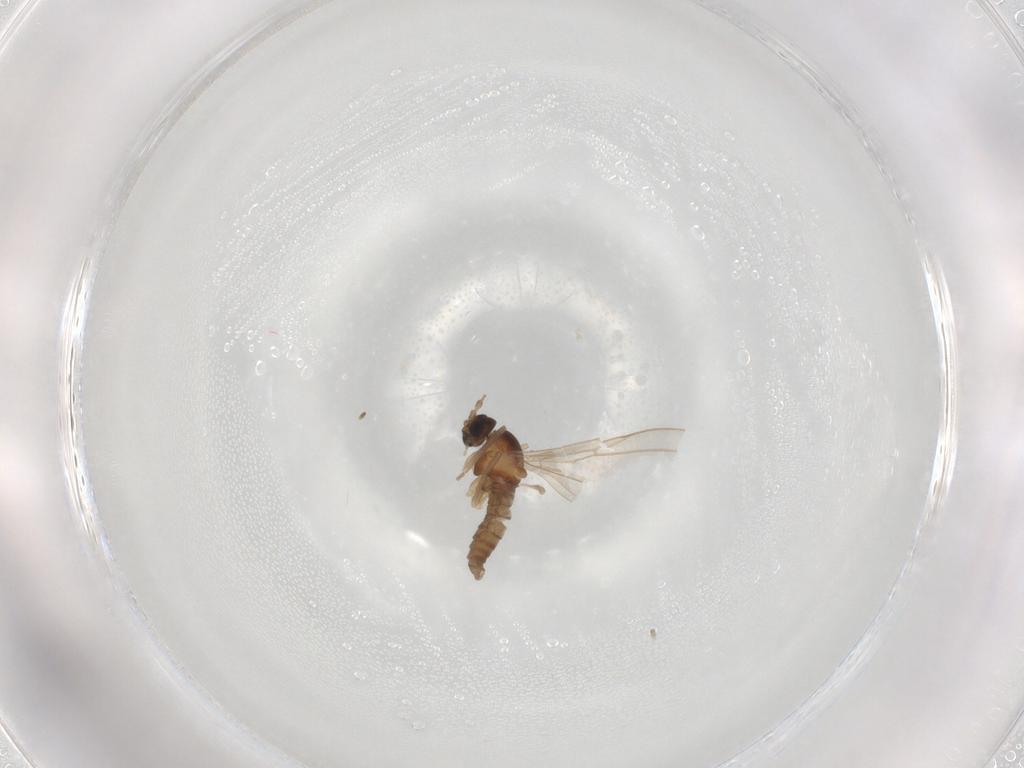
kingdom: Animalia
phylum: Arthropoda
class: Insecta
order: Diptera
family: Cecidomyiidae
